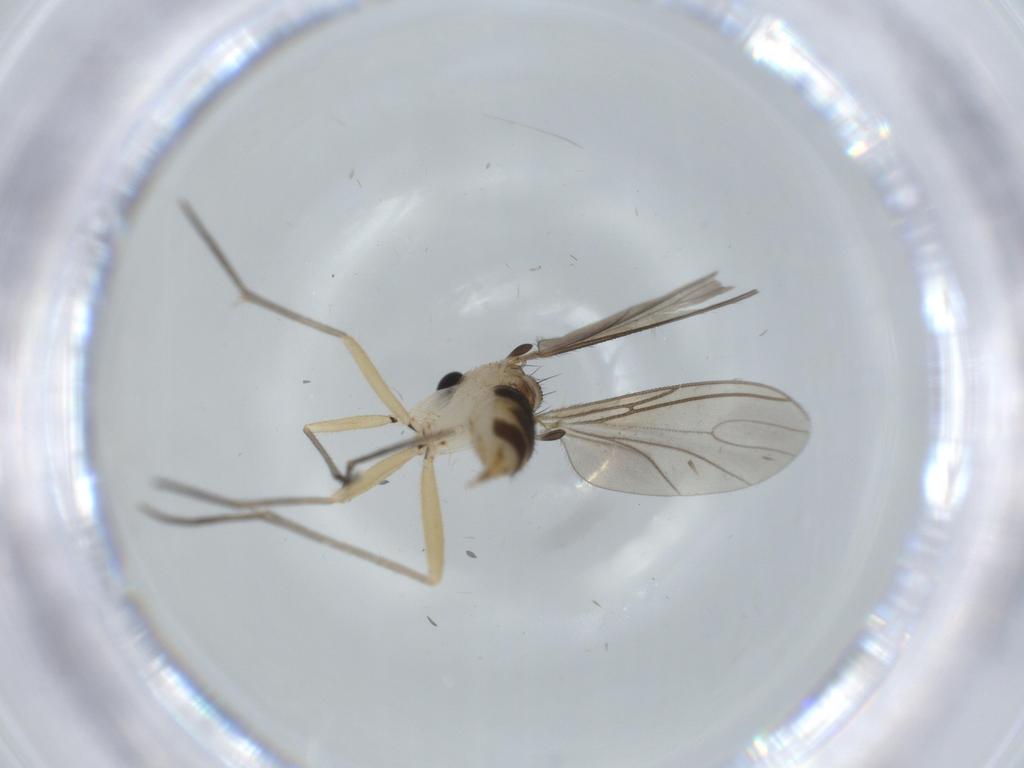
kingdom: Animalia
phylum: Arthropoda
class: Insecta
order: Diptera
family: Sciaridae
